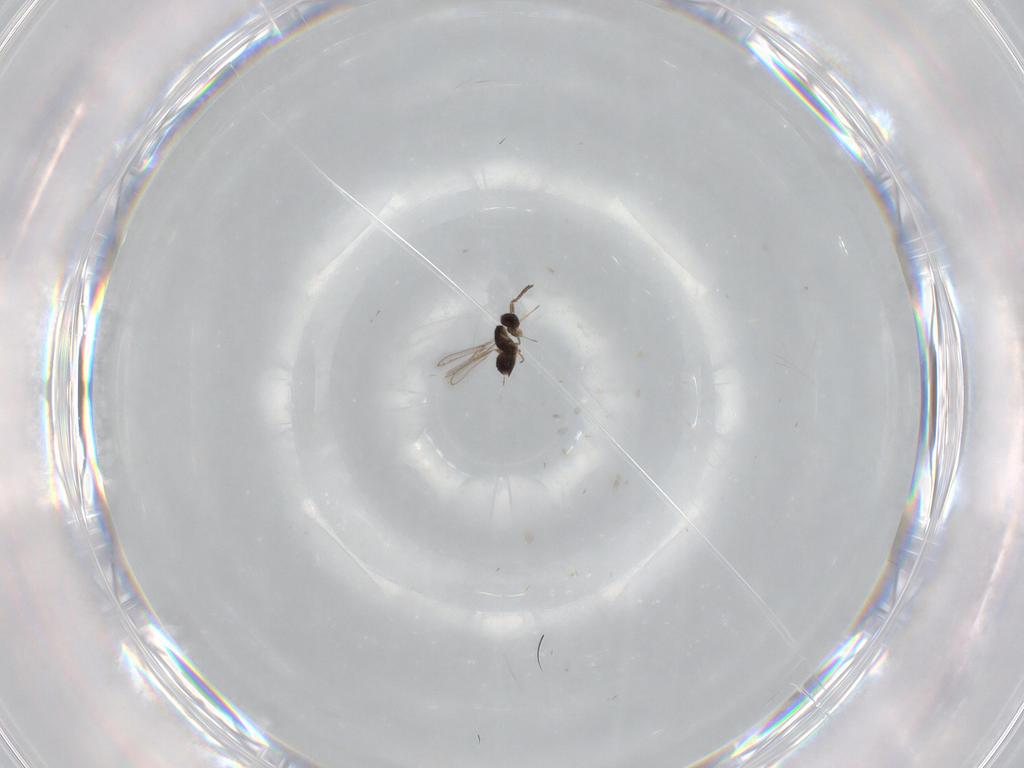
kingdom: Animalia
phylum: Arthropoda
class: Insecta
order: Hymenoptera
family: Mymaridae
